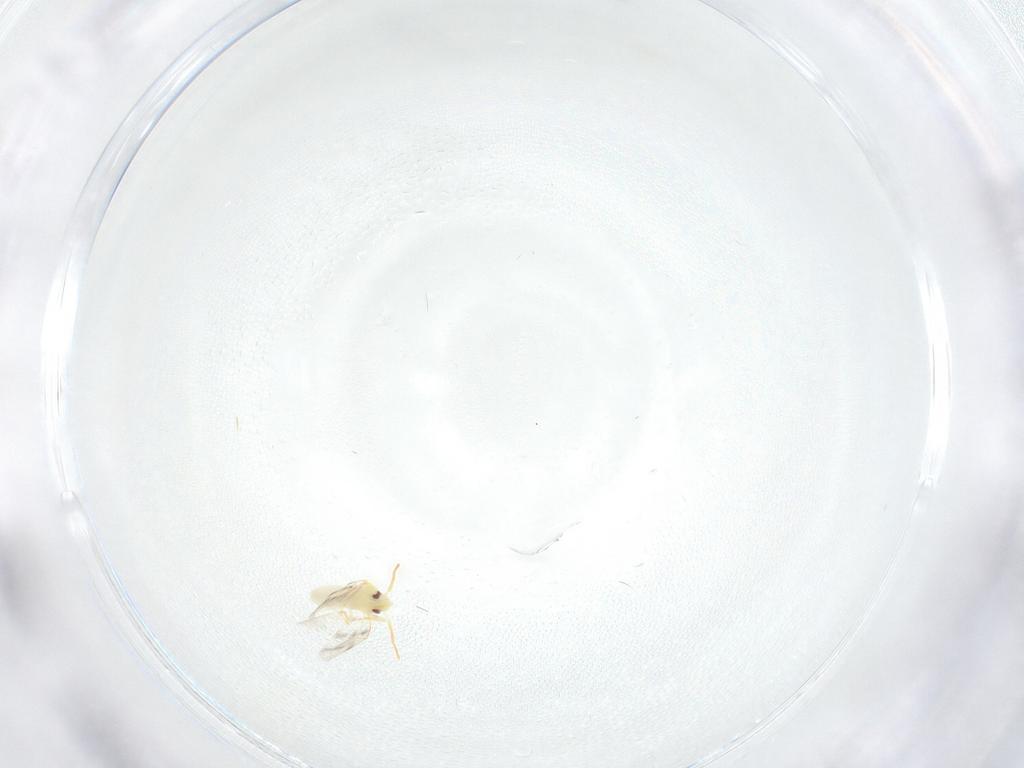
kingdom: Animalia
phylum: Arthropoda
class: Insecta
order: Hemiptera
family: Aleyrodidae
